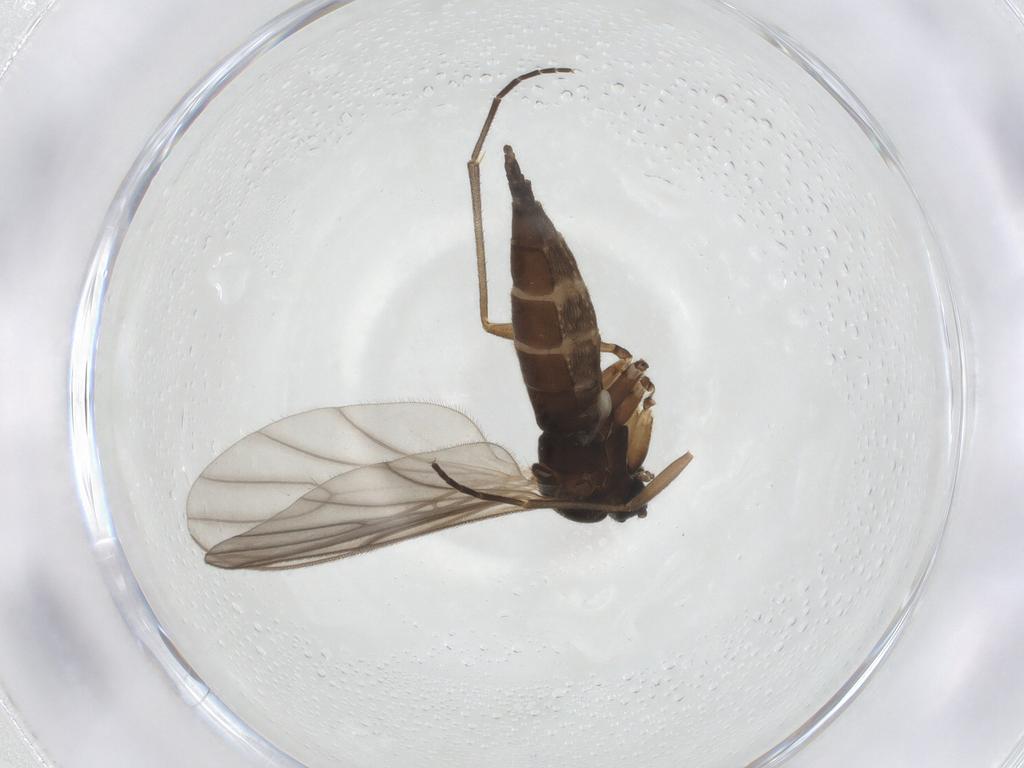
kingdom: Animalia
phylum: Arthropoda
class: Insecta
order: Diptera
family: Sciaridae
